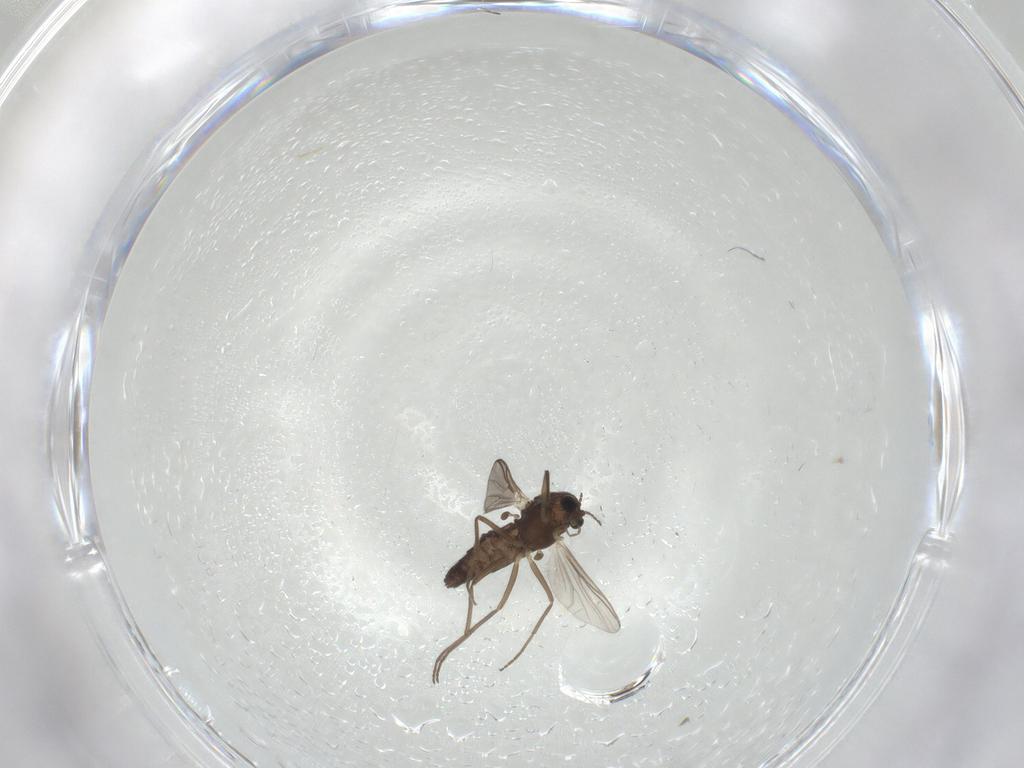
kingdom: Animalia
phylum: Arthropoda
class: Insecta
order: Diptera
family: Chironomidae
